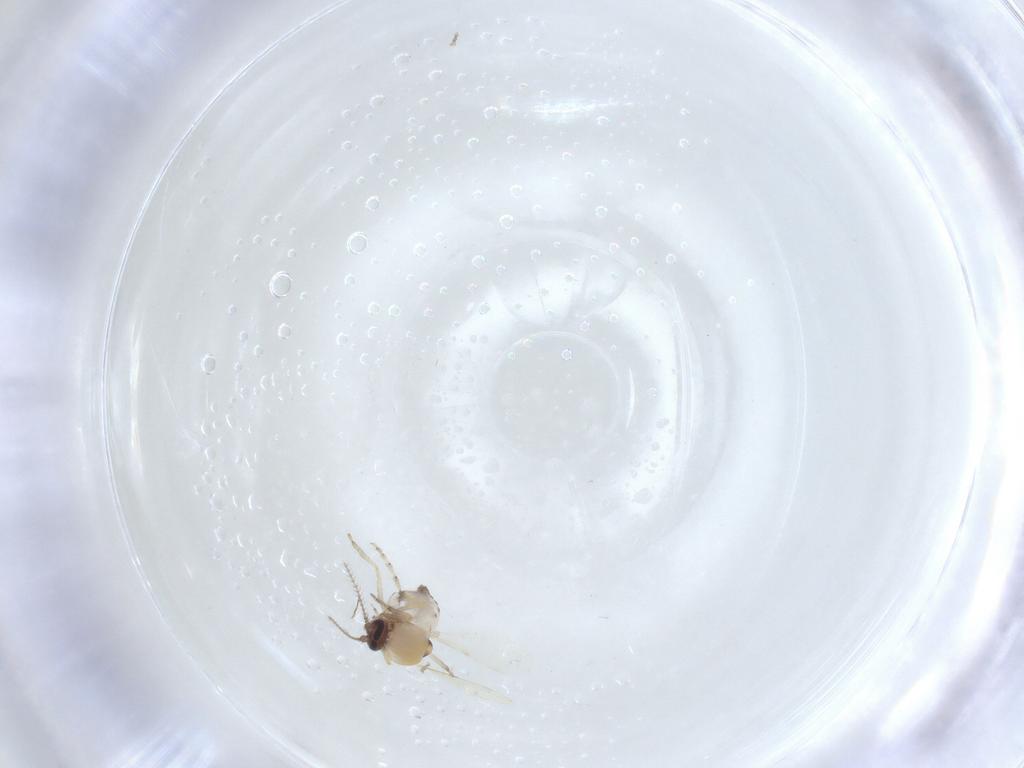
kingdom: Animalia
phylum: Arthropoda
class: Insecta
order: Diptera
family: Ceratopogonidae
